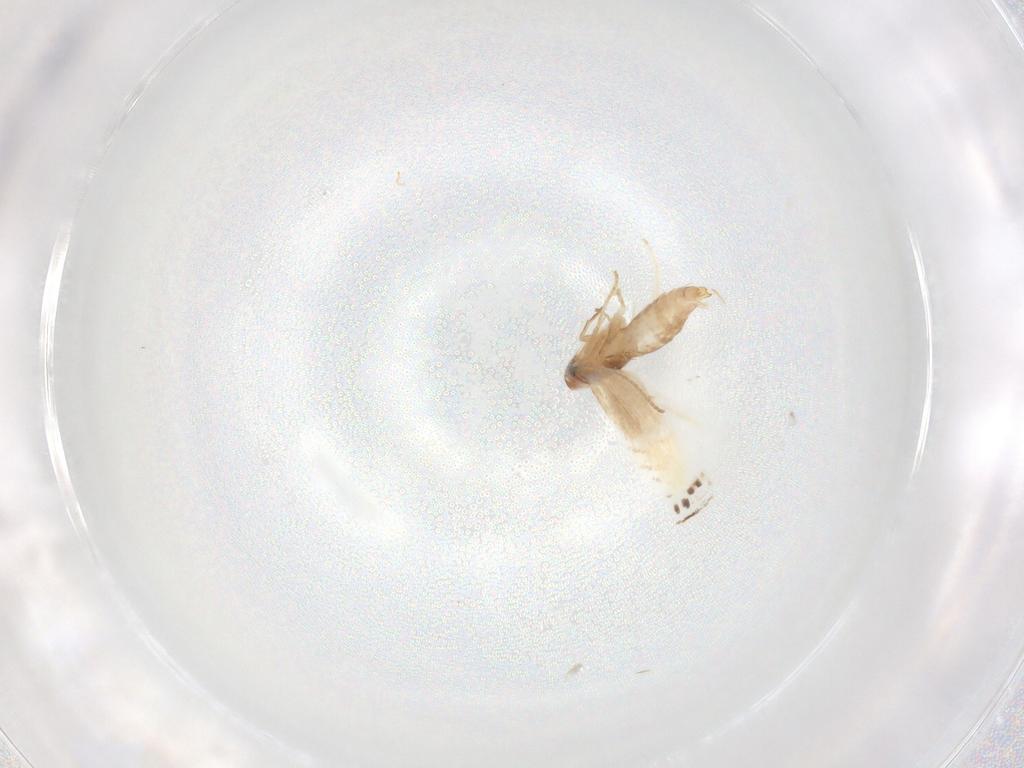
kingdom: Animalia
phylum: Arthropoda
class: Insecta
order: Lepidoptera
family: Lyonetiidae
